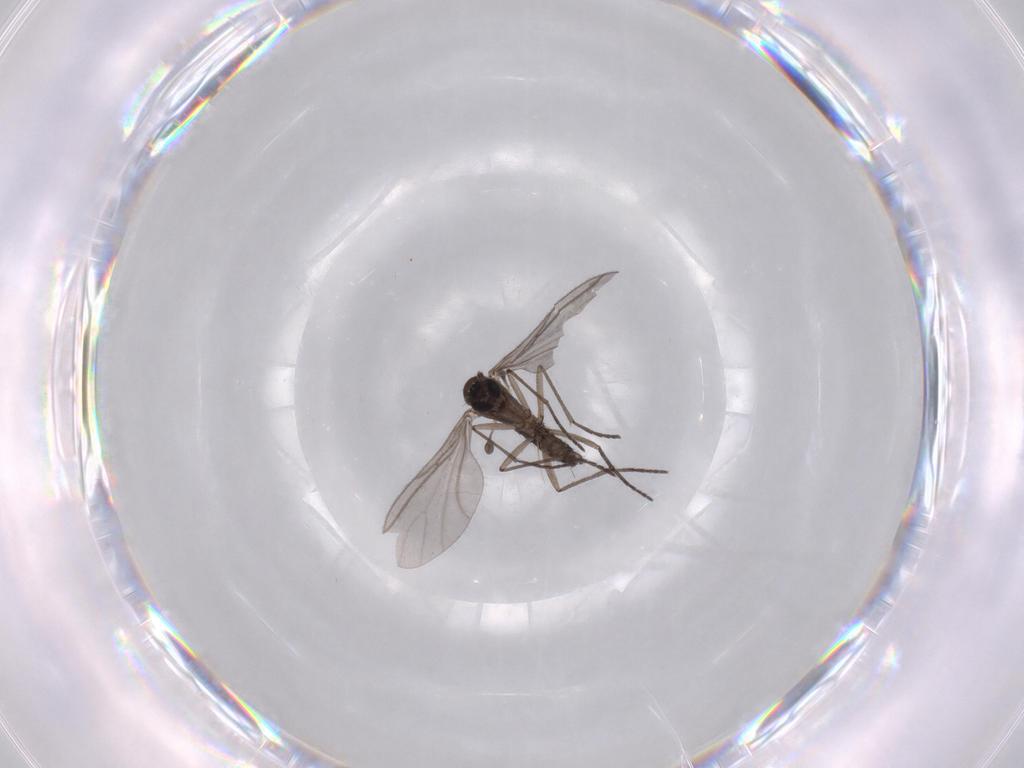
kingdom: Animalia
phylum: Arthropoda
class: Insecta
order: Diptera
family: Psychodidae
